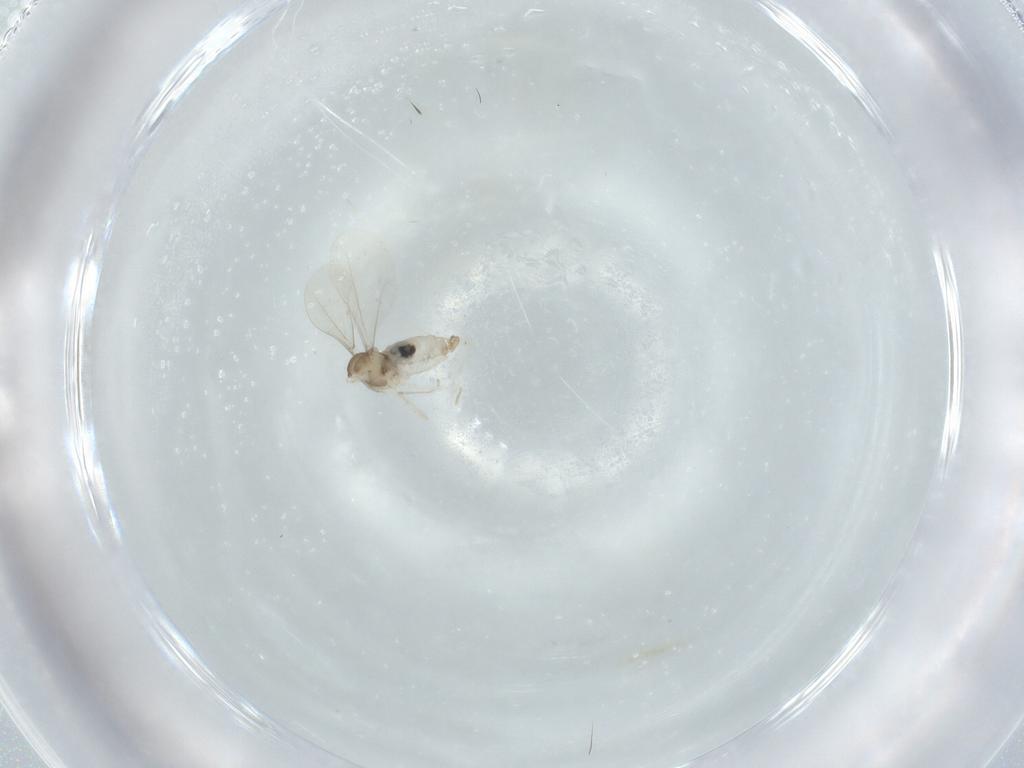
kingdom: Animalia
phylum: Arthropoda
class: Insecta
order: Diptera
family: Cecidomyiidae
